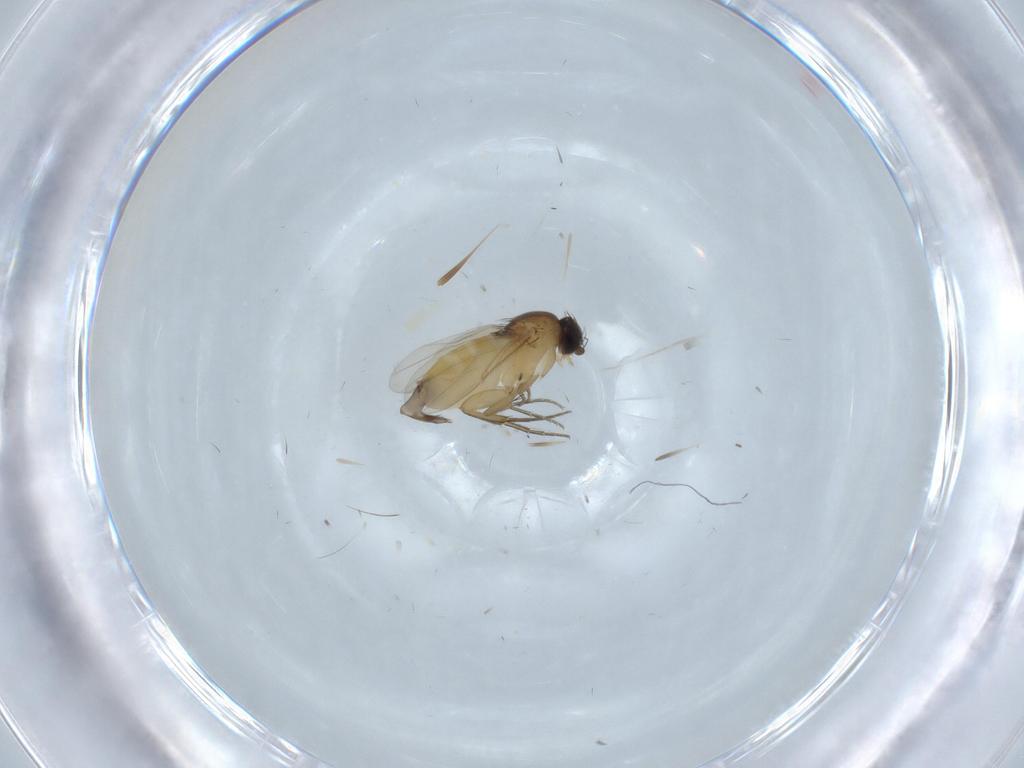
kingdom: Animalia
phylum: Arthropoda
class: Insecta
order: Diptera
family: Phoridae
